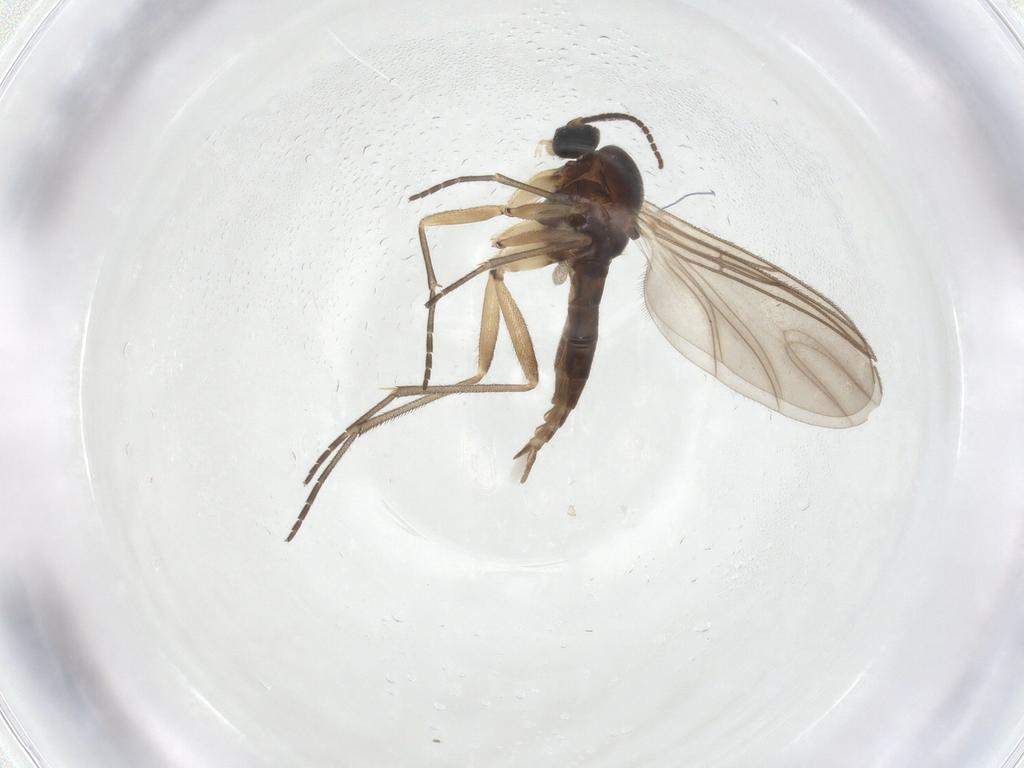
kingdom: Animalia
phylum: Arthropoda
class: Insecta
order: Diptera
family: Sciaridae
